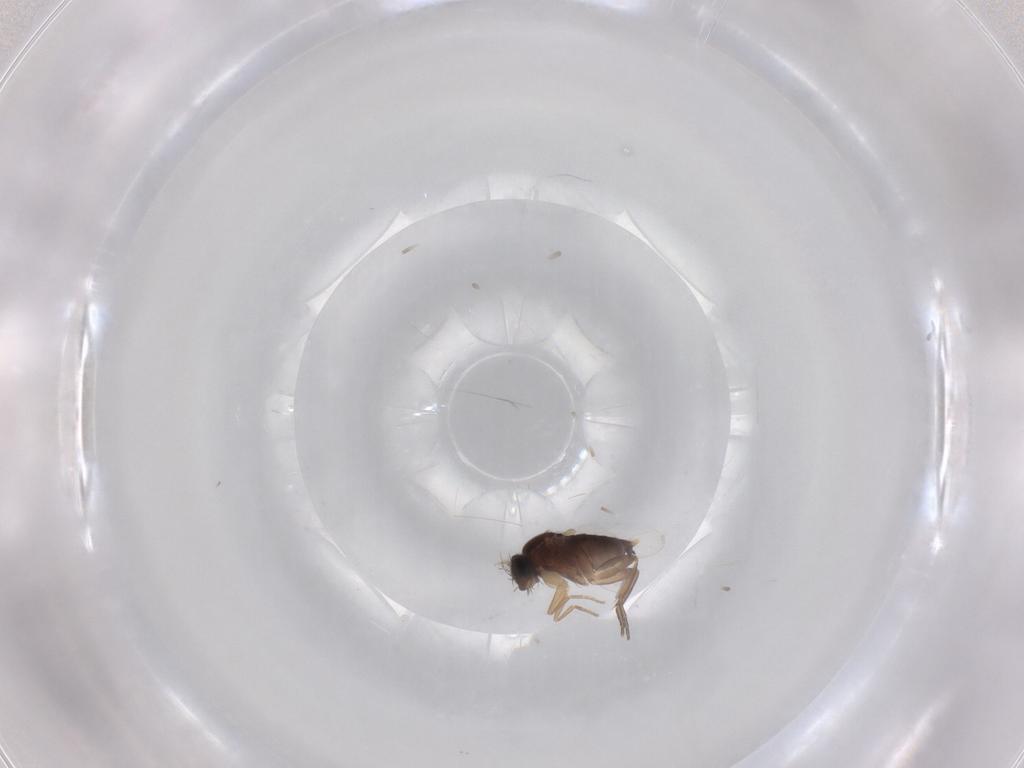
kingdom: Animalia
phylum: Arthropoda
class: Insecta
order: Diptera
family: Phoridae
